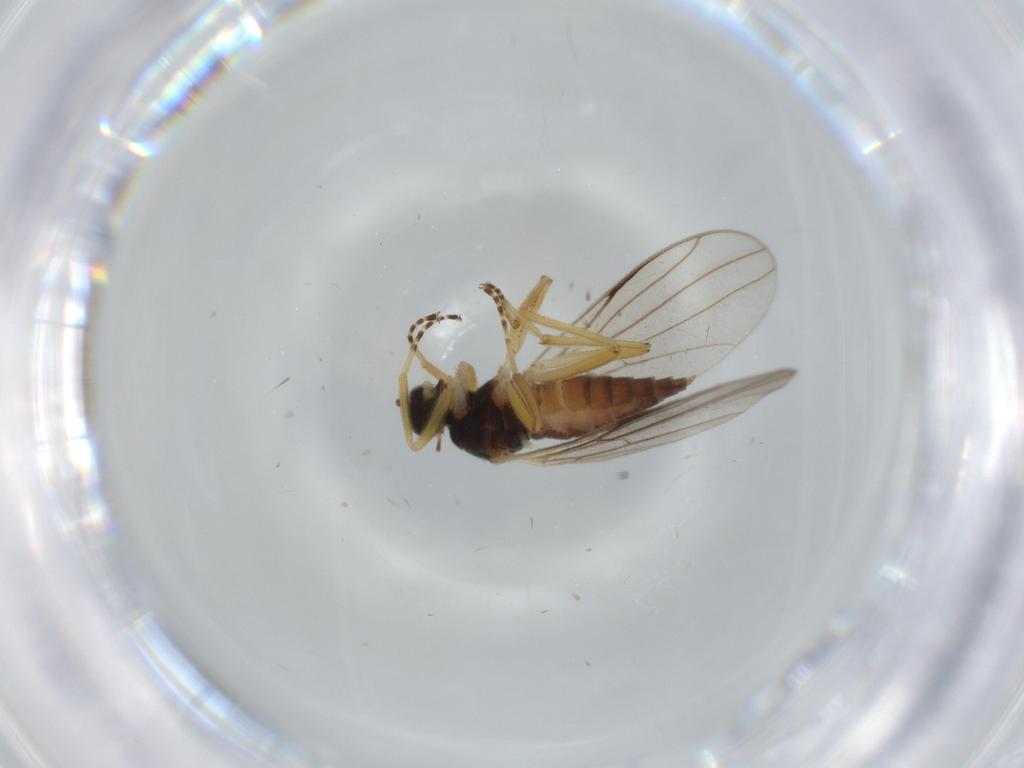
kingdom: Animalia
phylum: Arthropoda
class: Insecta
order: Diptera
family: Hybotidae
